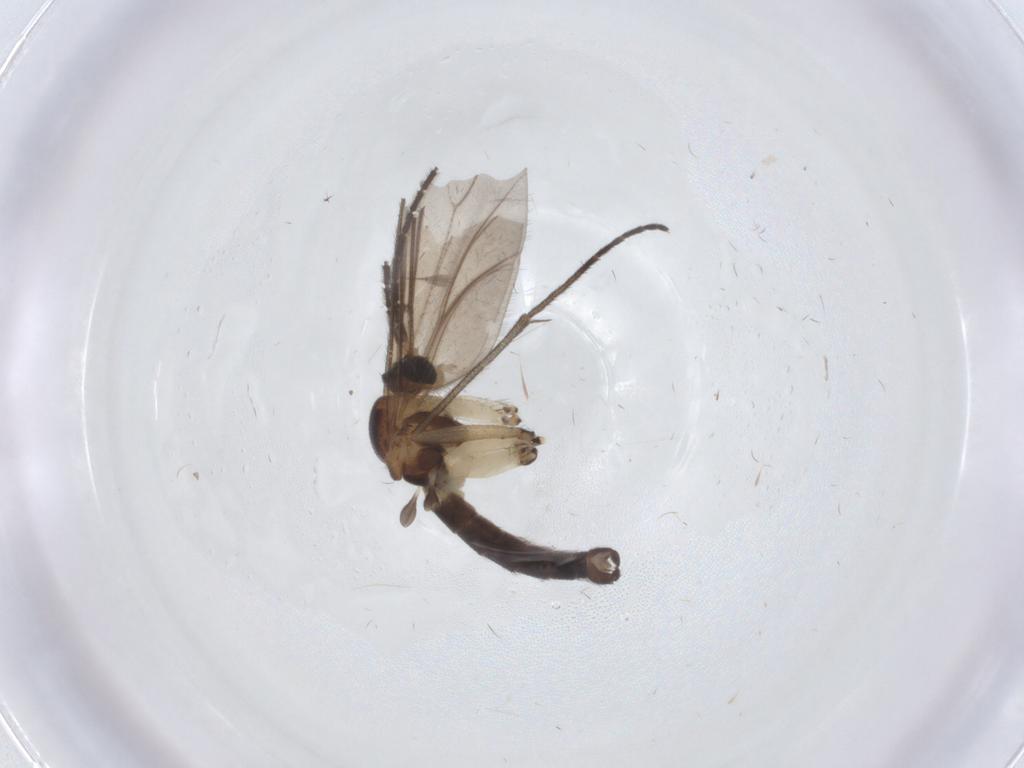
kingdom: Animalia
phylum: Arthropoda
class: Insecta
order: Diptera
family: Sciaridae
